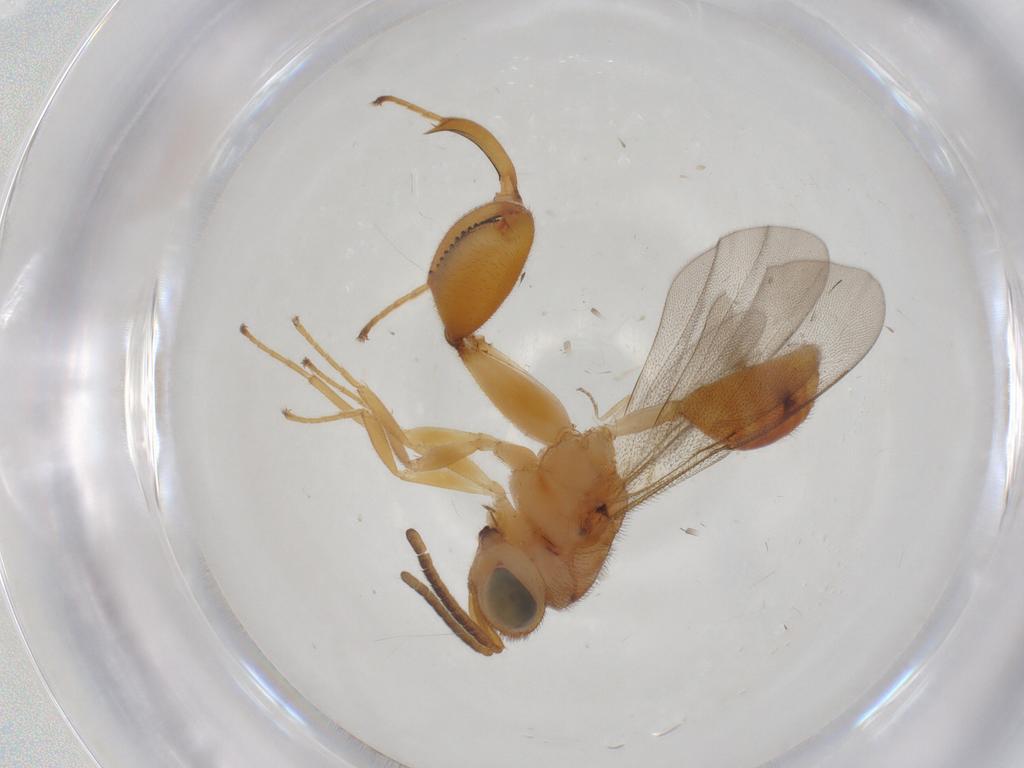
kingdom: Animalia
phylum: Arthropoda
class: Insecta
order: Hymenoptera
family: Chalcididae
